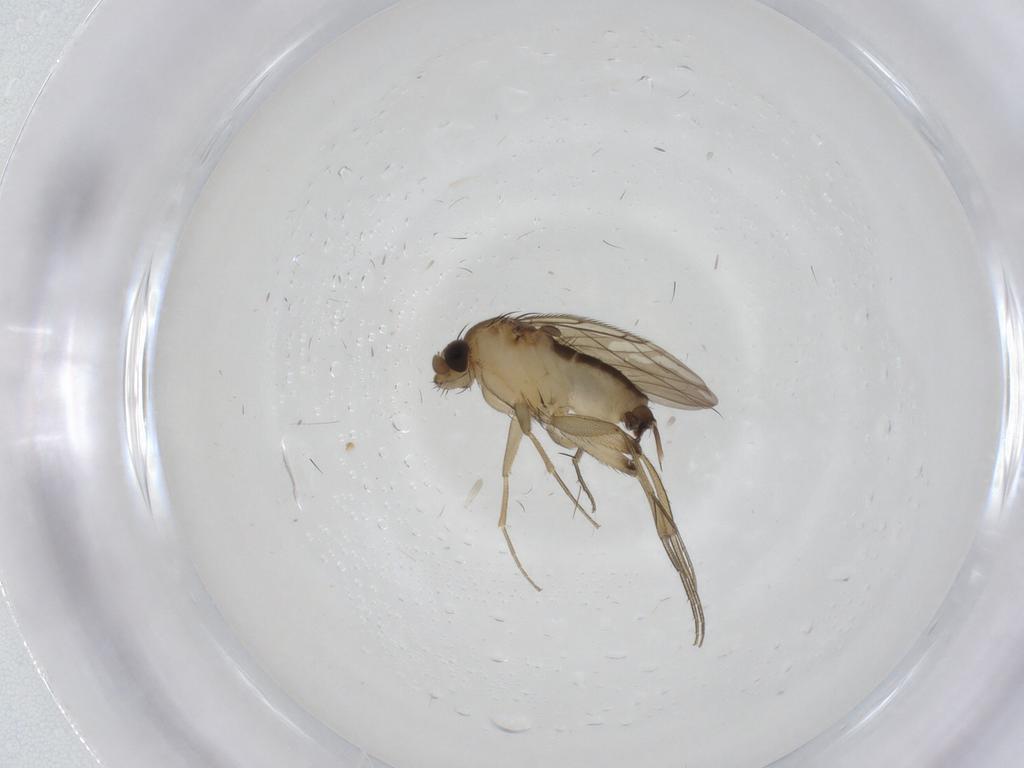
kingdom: Animalia
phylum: Arthropoda
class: Insecta
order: Diptera
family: Phoridae
